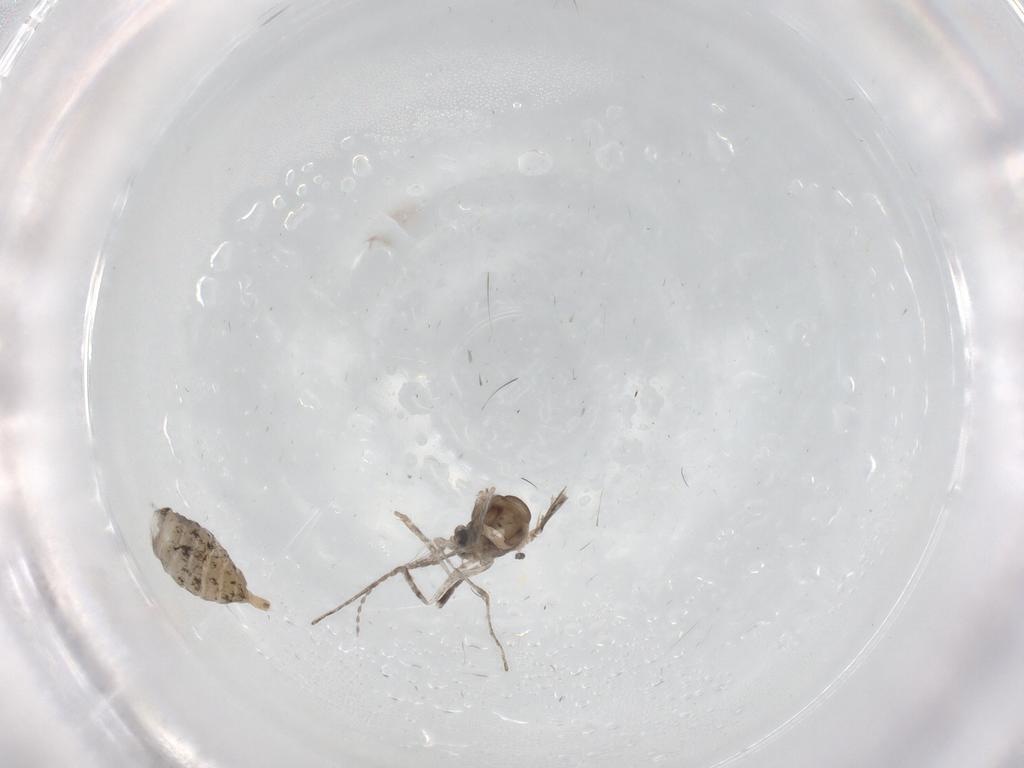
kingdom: Animalia
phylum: Arthropoda
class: Insecta
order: Diptera
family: Cecidomyiidae
